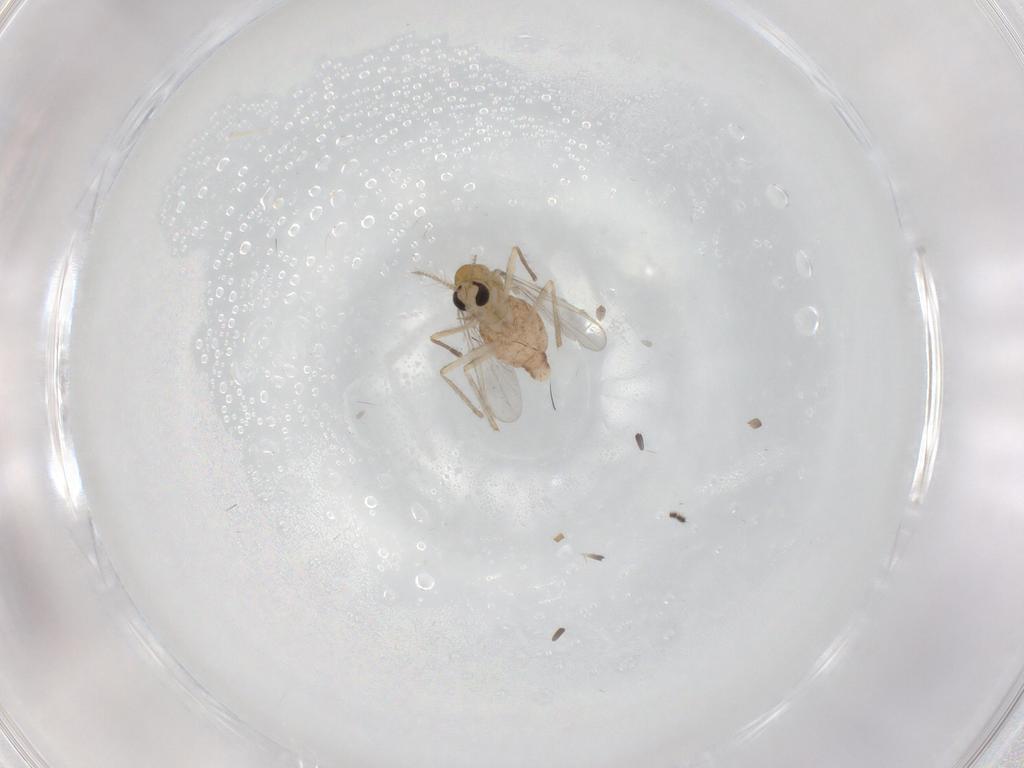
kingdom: Animalia
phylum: Arthropoda
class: Insecta
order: Diptera
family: Chironomidae
